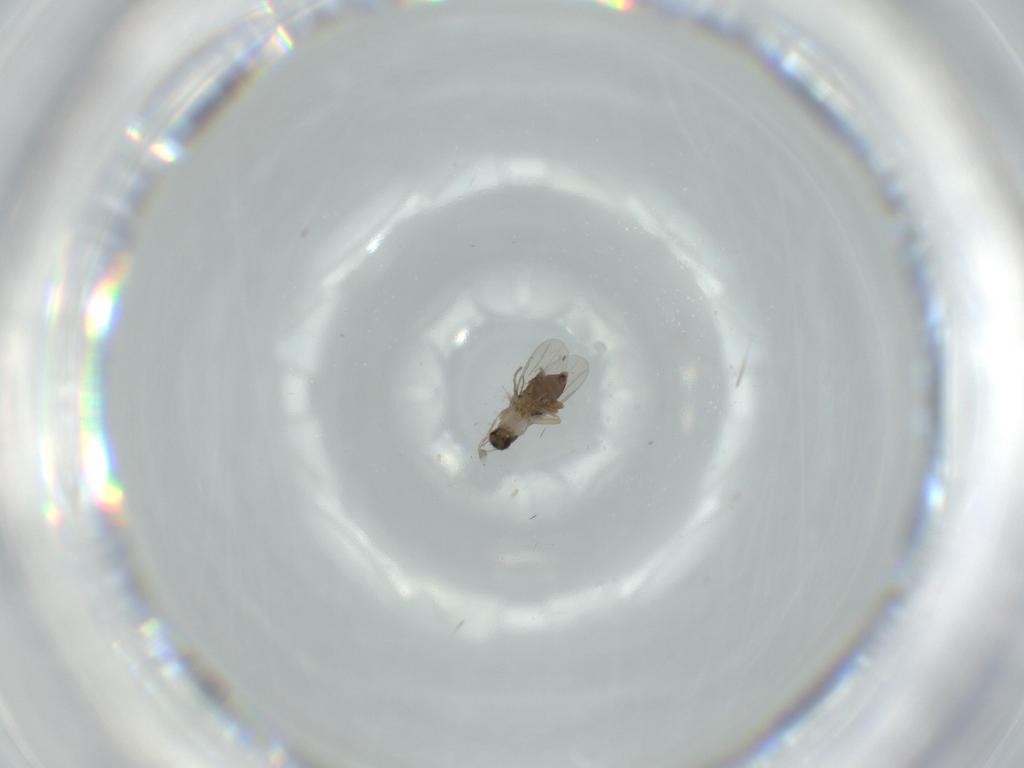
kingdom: Animalia
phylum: Arthropoda
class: Insecta
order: Diptera
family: Phoridae
